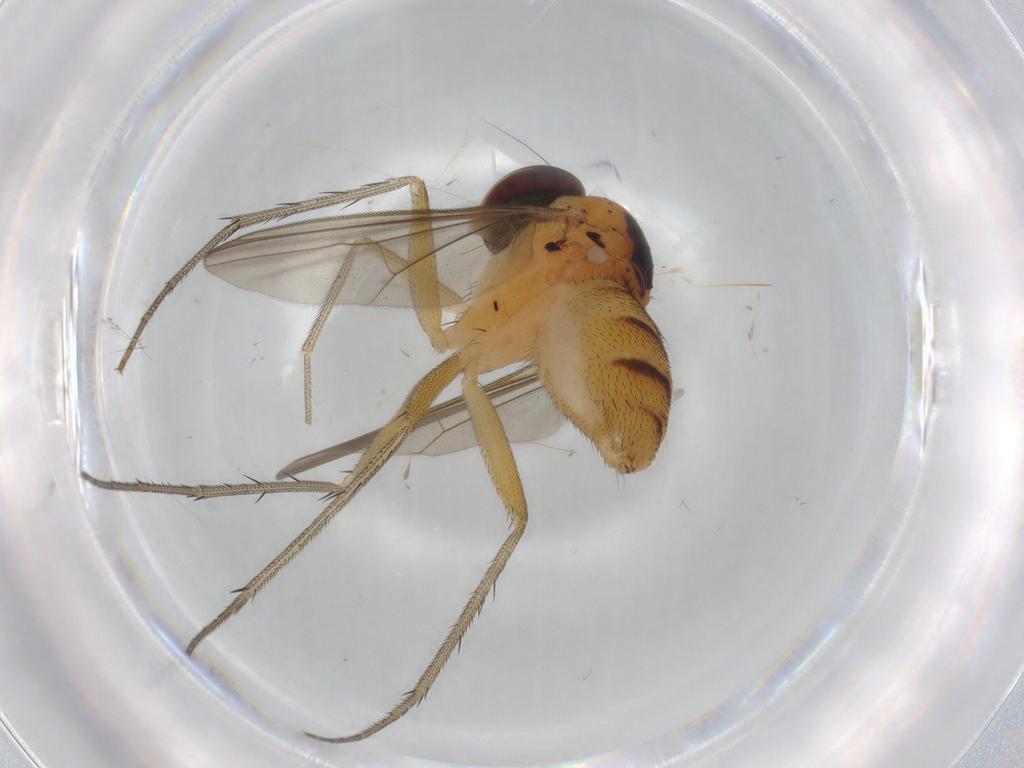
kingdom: Animalia
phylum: Arthropoda
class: Insecta
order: Diptera
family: Dolichopodidae
